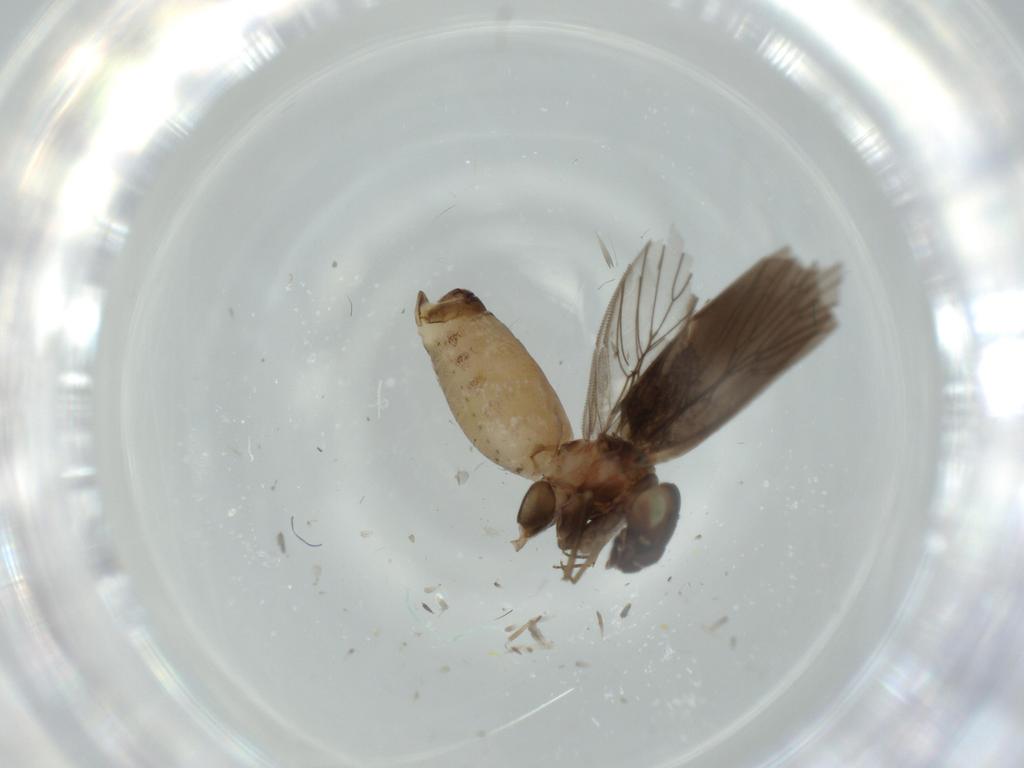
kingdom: Animalia
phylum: Arthropoda
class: Insecta
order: Psocodea
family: Lepidopsocidae
